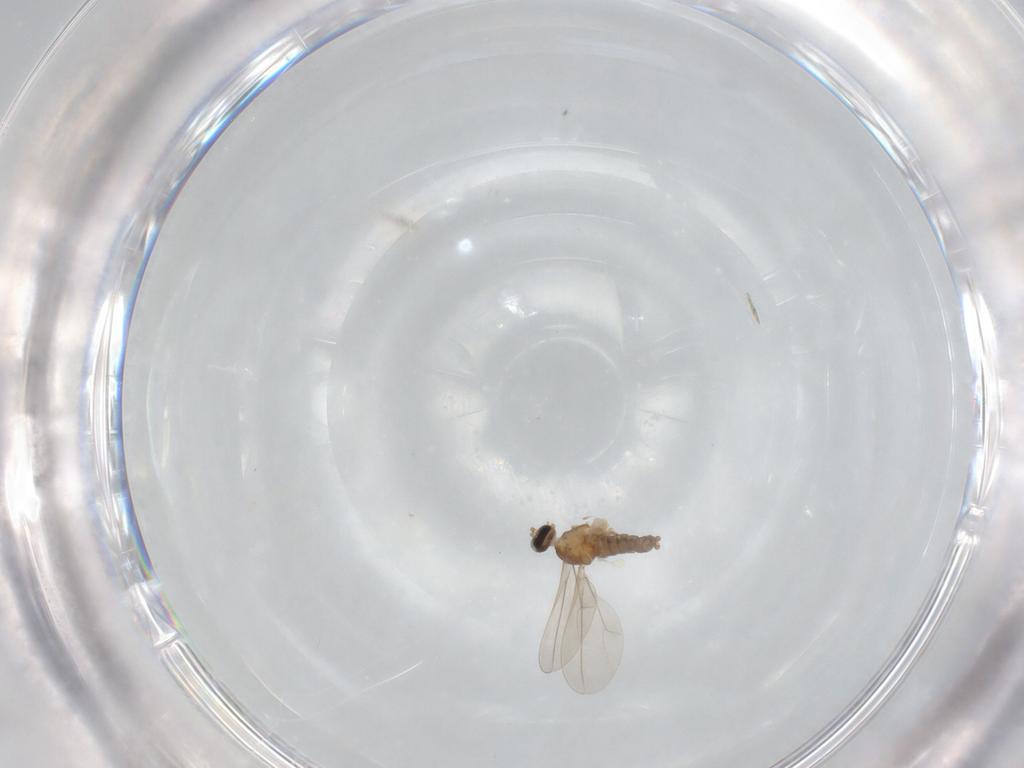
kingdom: Animalia
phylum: Arthropoda
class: Insecta
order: Diptera
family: Cecidomyiidae
